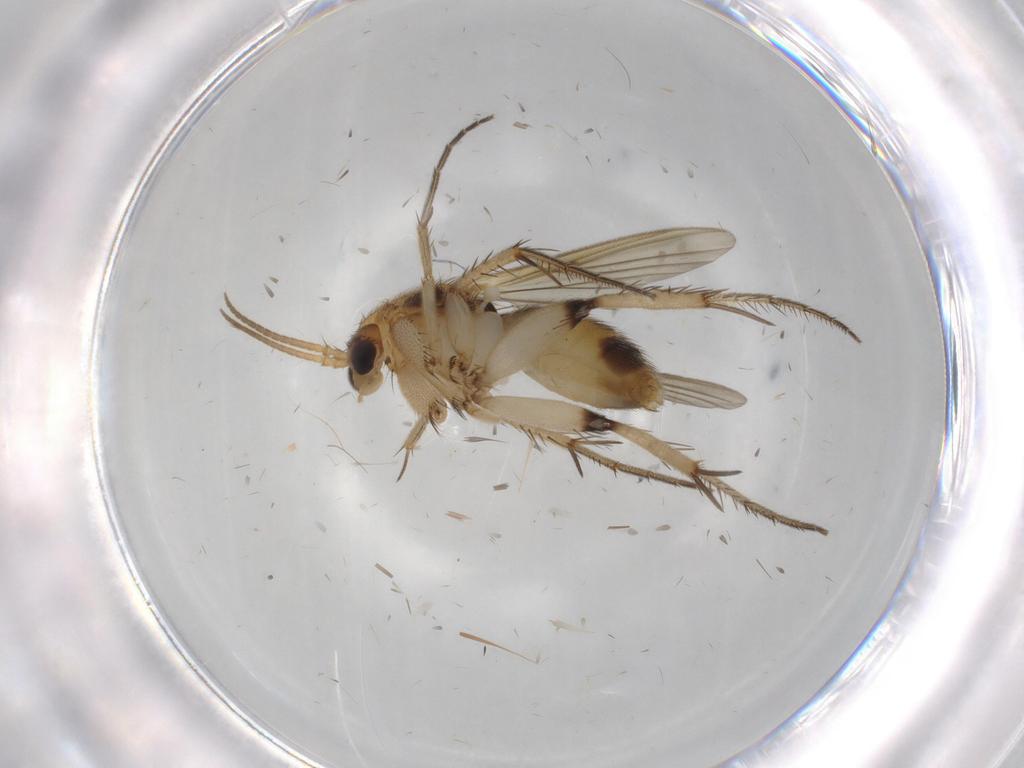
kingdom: Animalia
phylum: Arthropoda
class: Insecta
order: Diptera
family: Mycetophilidae
